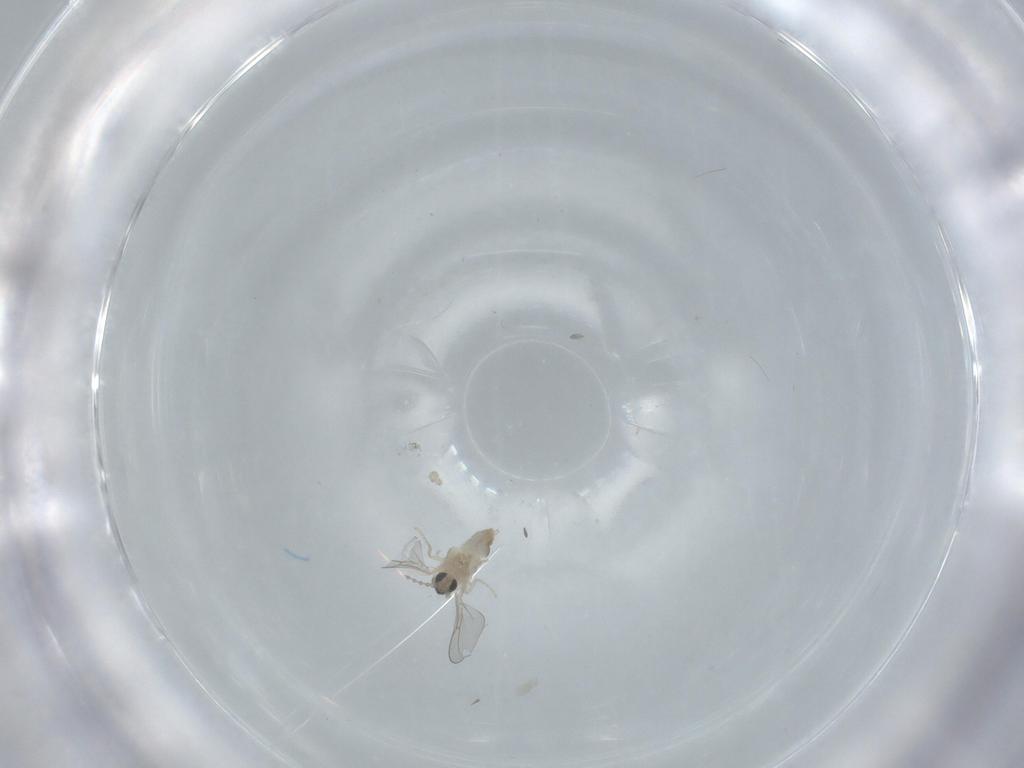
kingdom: Animalia
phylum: Arthropoda
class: Insecta
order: Diptera
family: Cecidomyiidae
